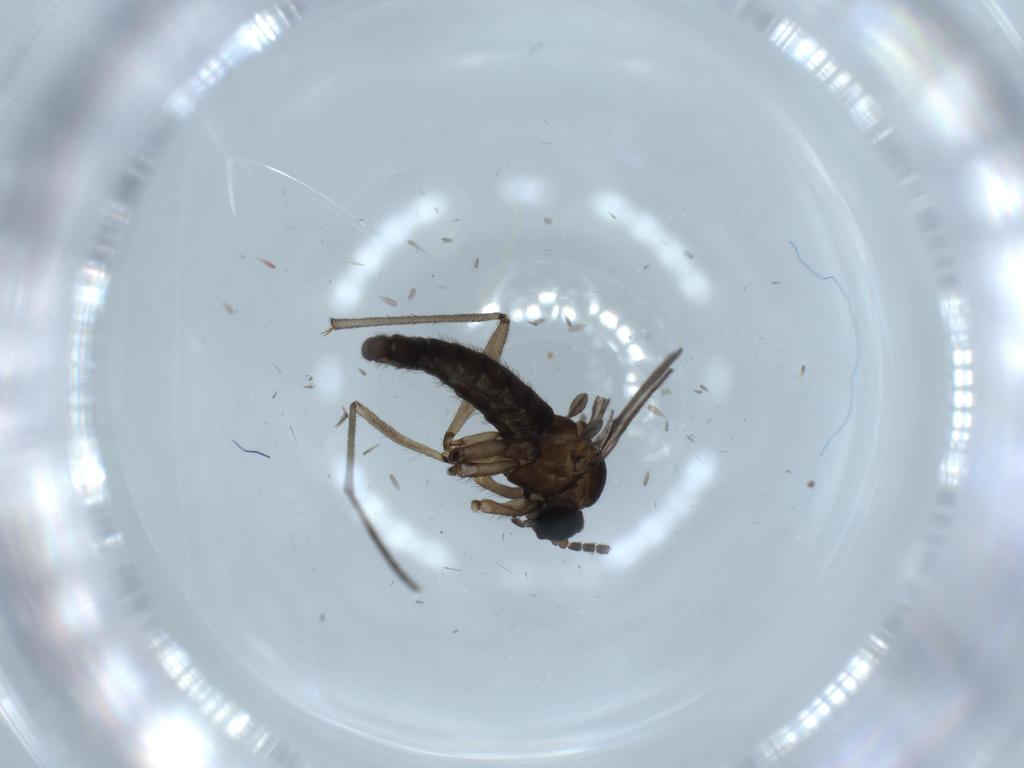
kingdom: Animalia
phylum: Arthropoda
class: Insecta
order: Diptera
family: Sciaridae
